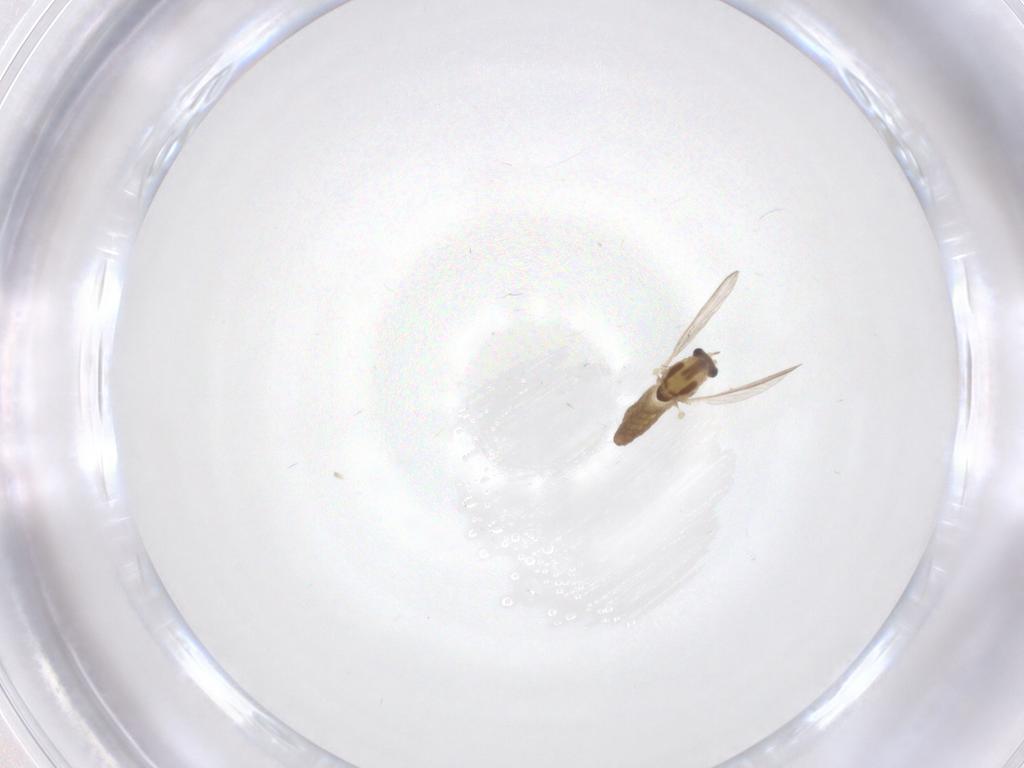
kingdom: Animalia
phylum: Arthropoda
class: Insecta
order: Diptera
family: Chironomidae
